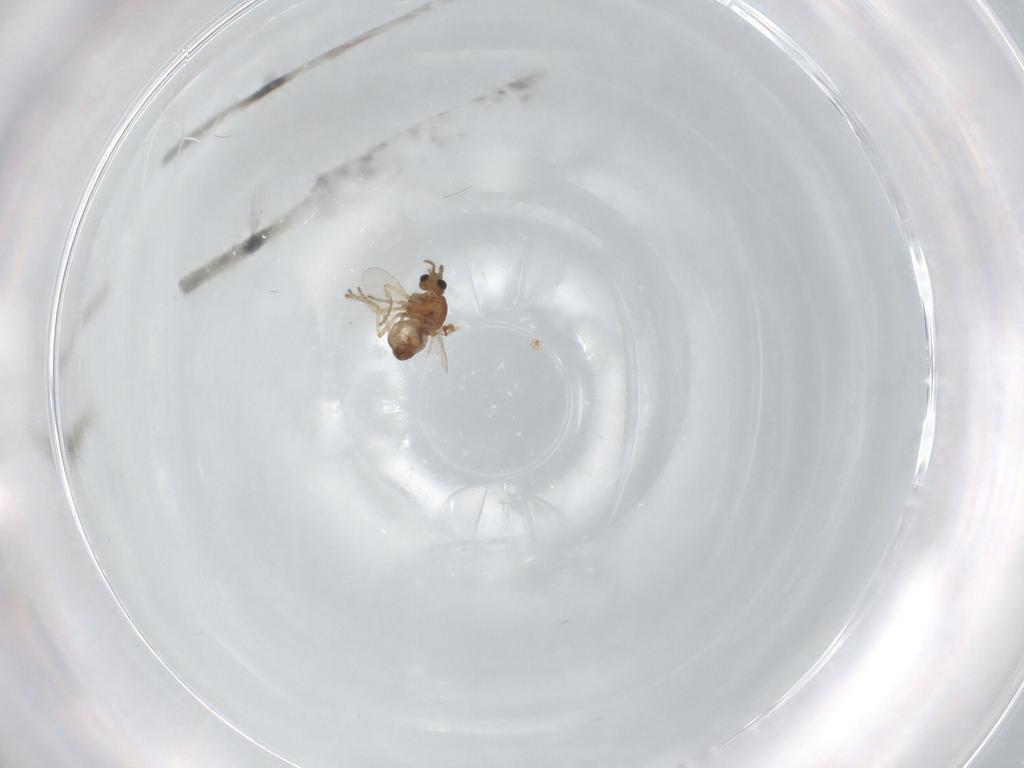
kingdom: Animalia
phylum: Arthropoda
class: Insecta
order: Diptera
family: Ceratopogonidae
